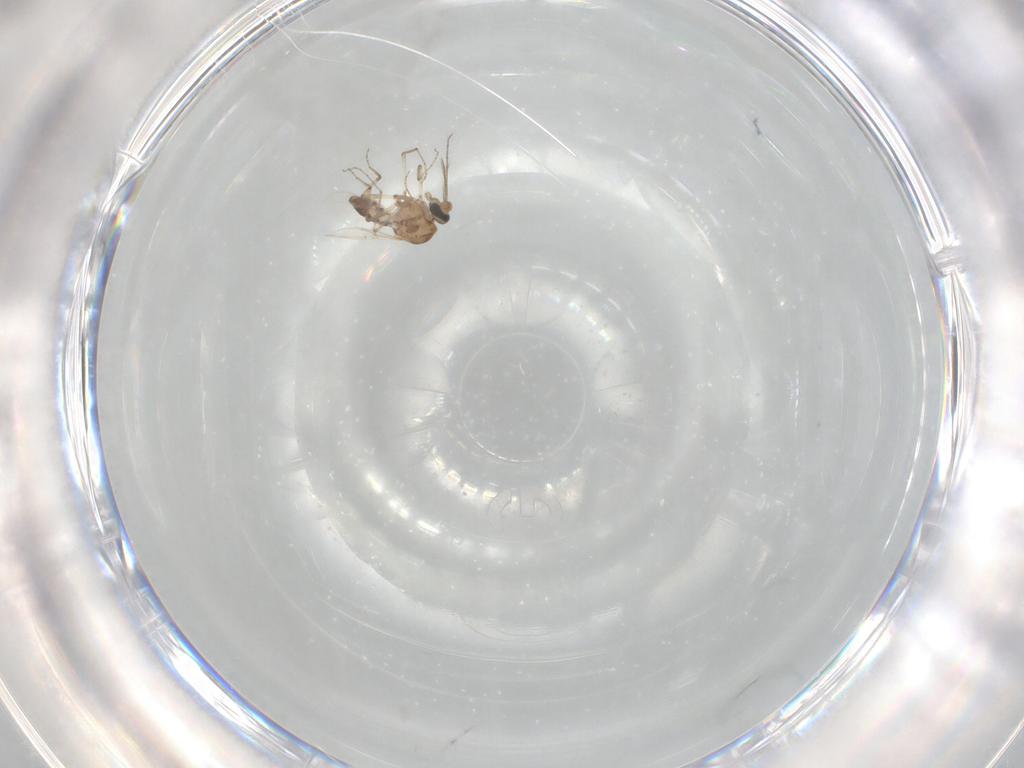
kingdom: Animalia
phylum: Arthropoda
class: Insecta
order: Diptera
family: Ceratopogonidae
